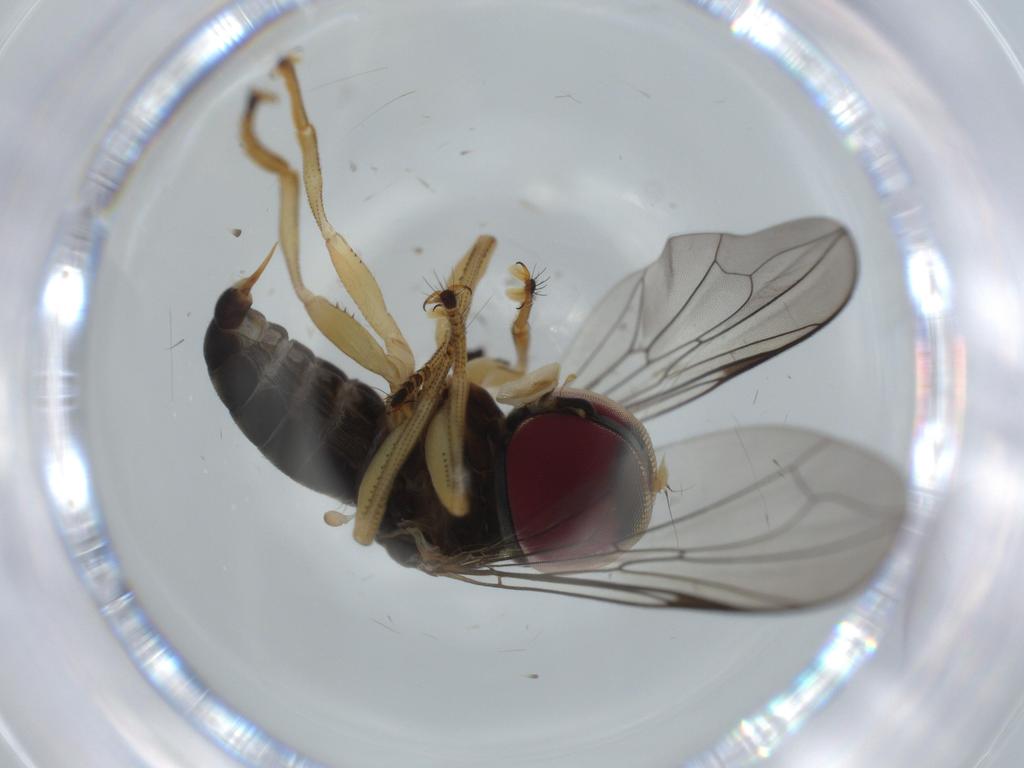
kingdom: Animalia
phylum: Arthropoda
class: Insecta
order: Diptera
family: Pipunculidae
